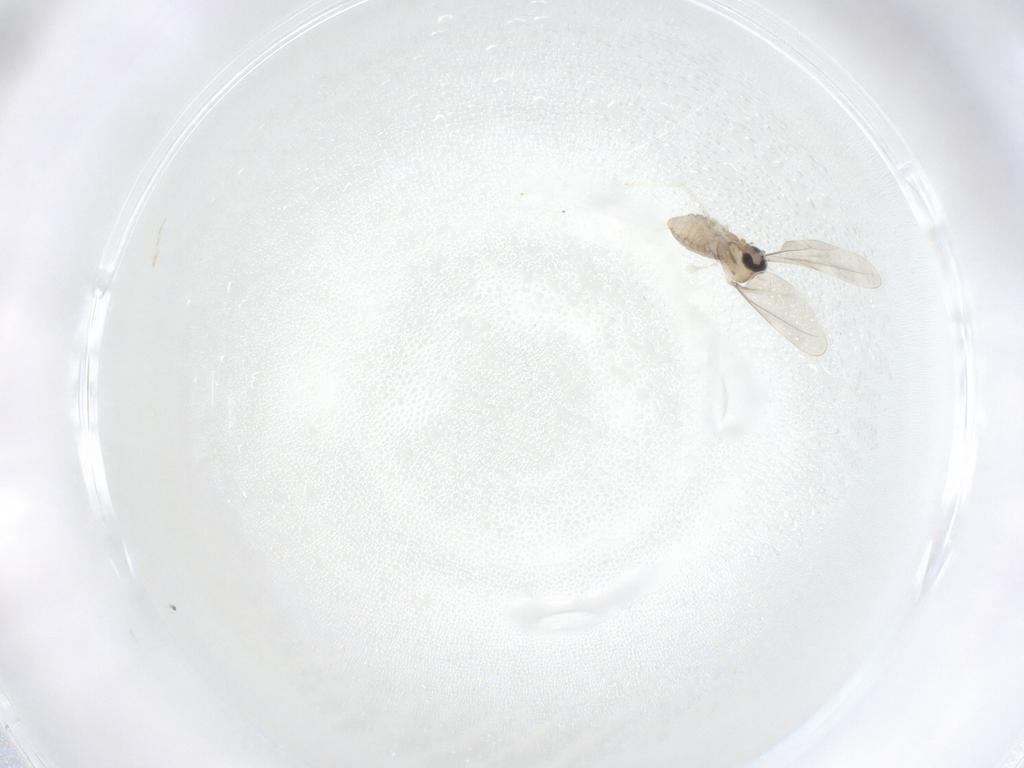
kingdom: Animalia
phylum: Arthropoda
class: Insecta
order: Diptera
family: Cecidomyiidae
